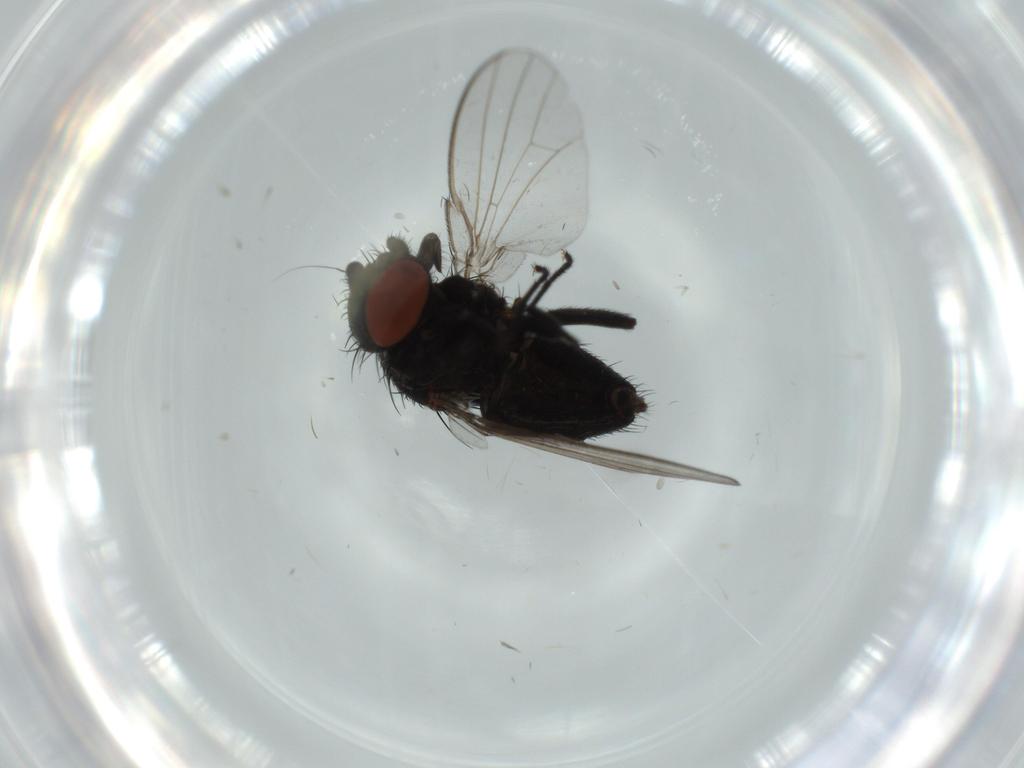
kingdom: Animalia
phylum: Arthropoda
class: Insecta
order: Diptera
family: Milichiidae
